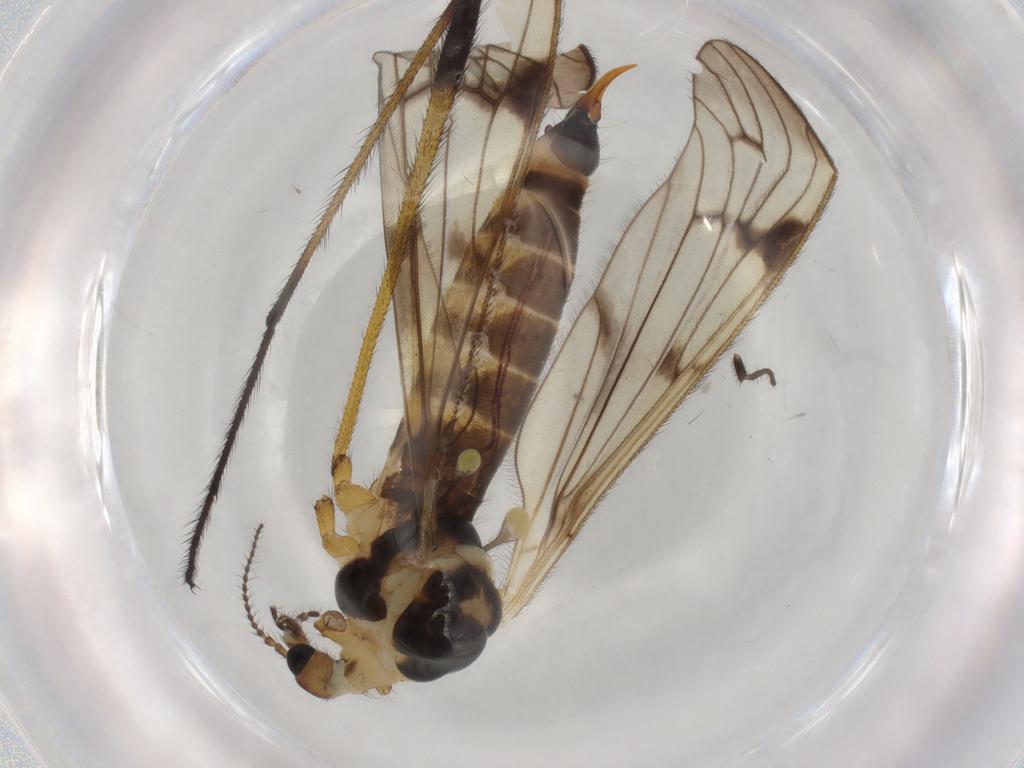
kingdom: Animalia
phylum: Arthropoda
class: Insecta
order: Diptera
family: Limoniidae
